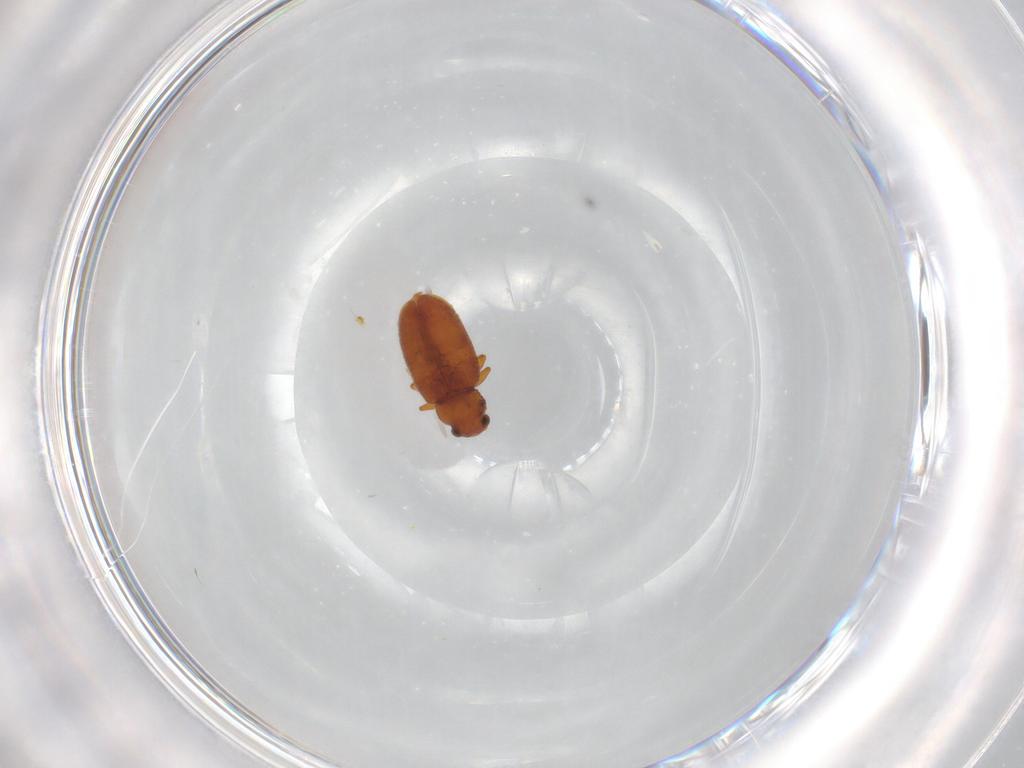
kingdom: Animalia
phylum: Arthropoda
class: Insecta
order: Coleoptera
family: Latridiidae
